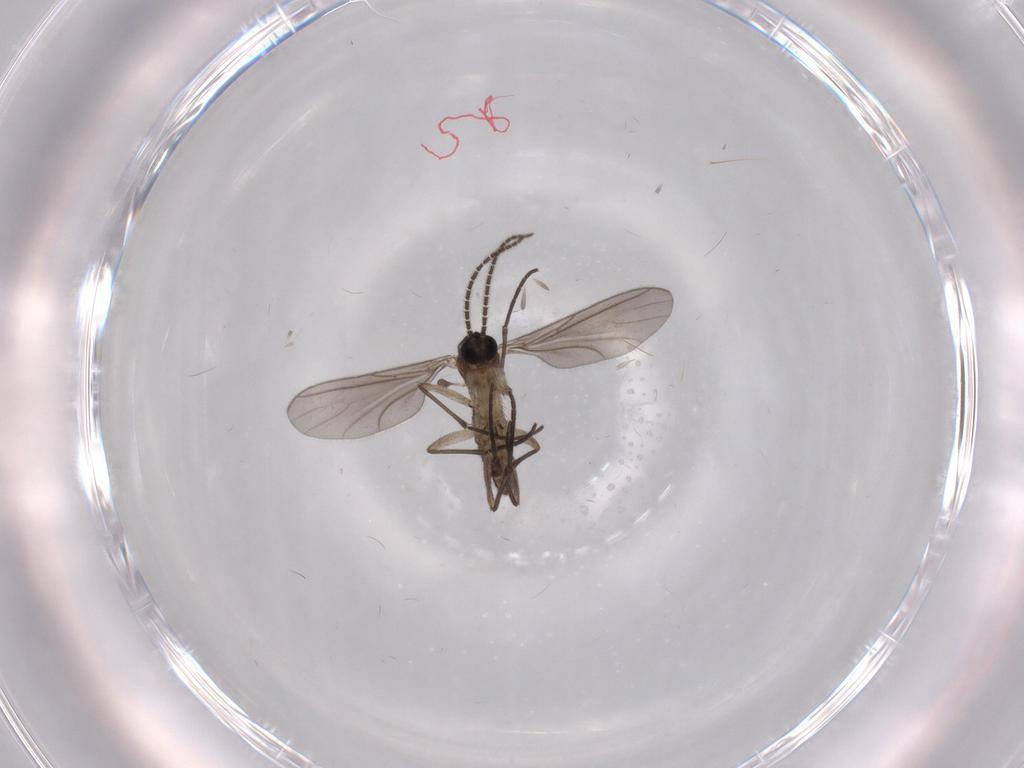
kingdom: Animalia
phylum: Arthropoda
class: Insecta
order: Diptera
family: Sciaridae
